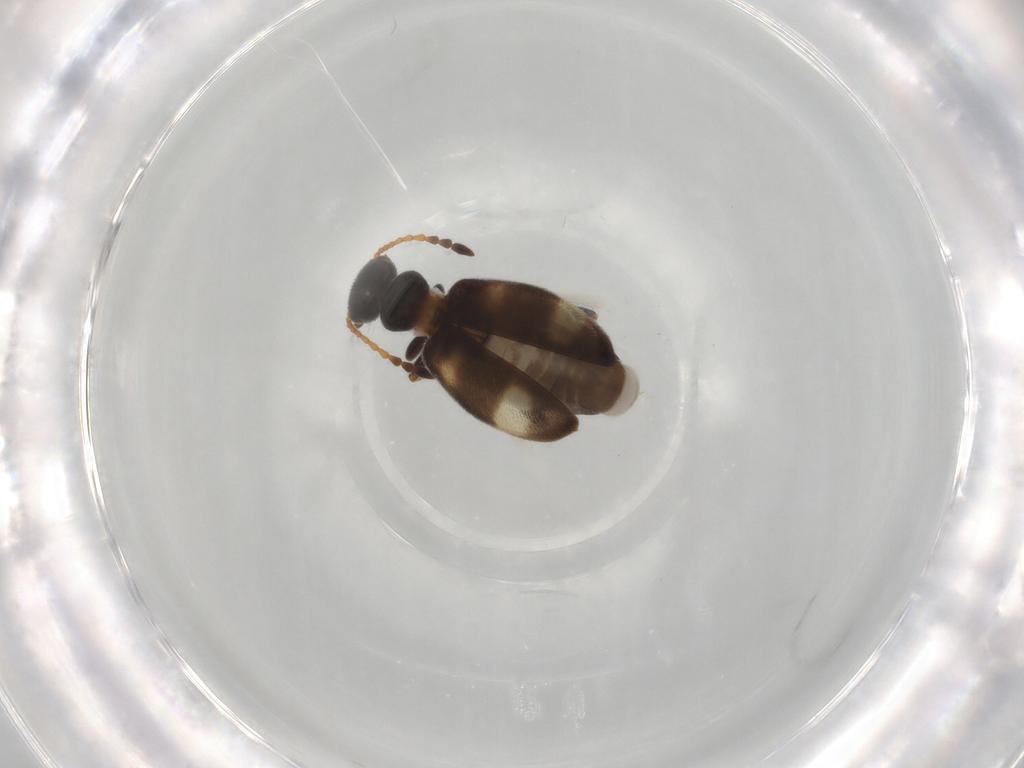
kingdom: Animalia
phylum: Arthropoda
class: Insecta
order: Coleoptera
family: Anthicidae
